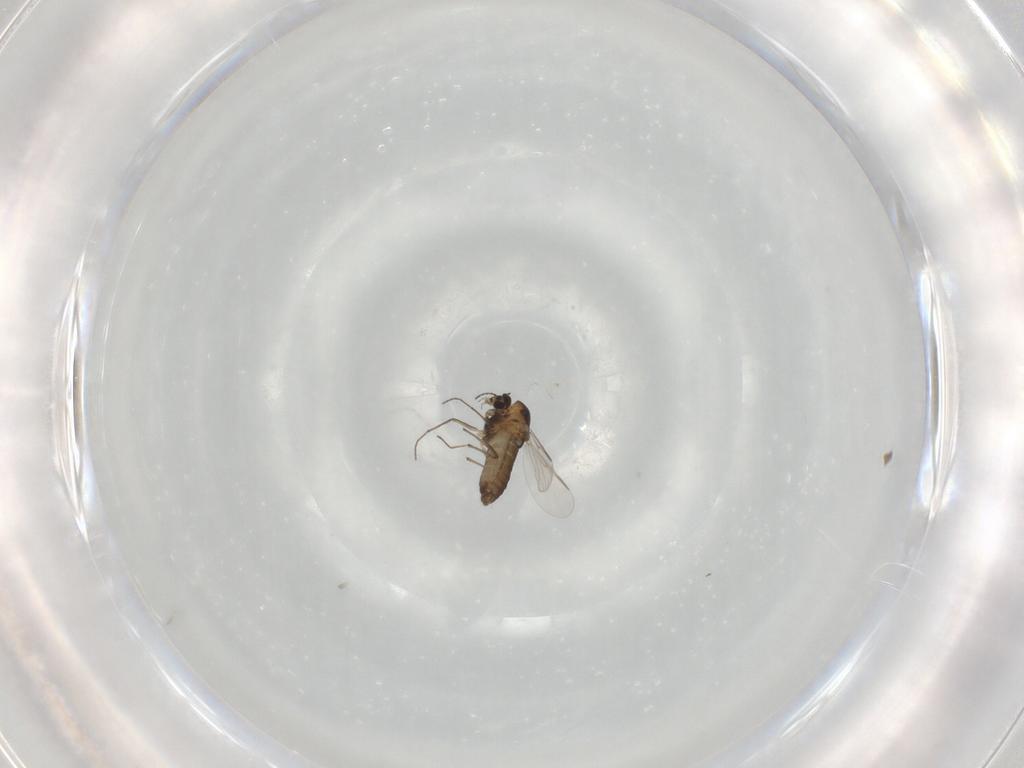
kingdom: Animalia
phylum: Arthropoda
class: Insecta
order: Diptera
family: Chironomidae
